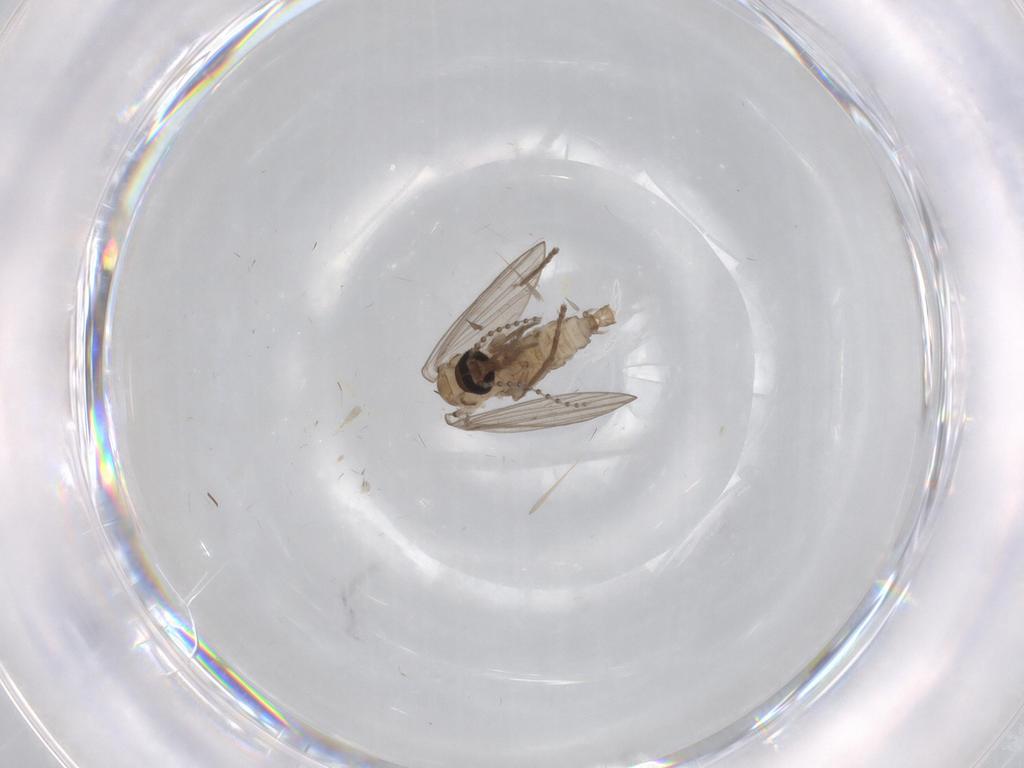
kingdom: Animalia
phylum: Arthropoda
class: Insecta
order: Diptera
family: Psychodidae
